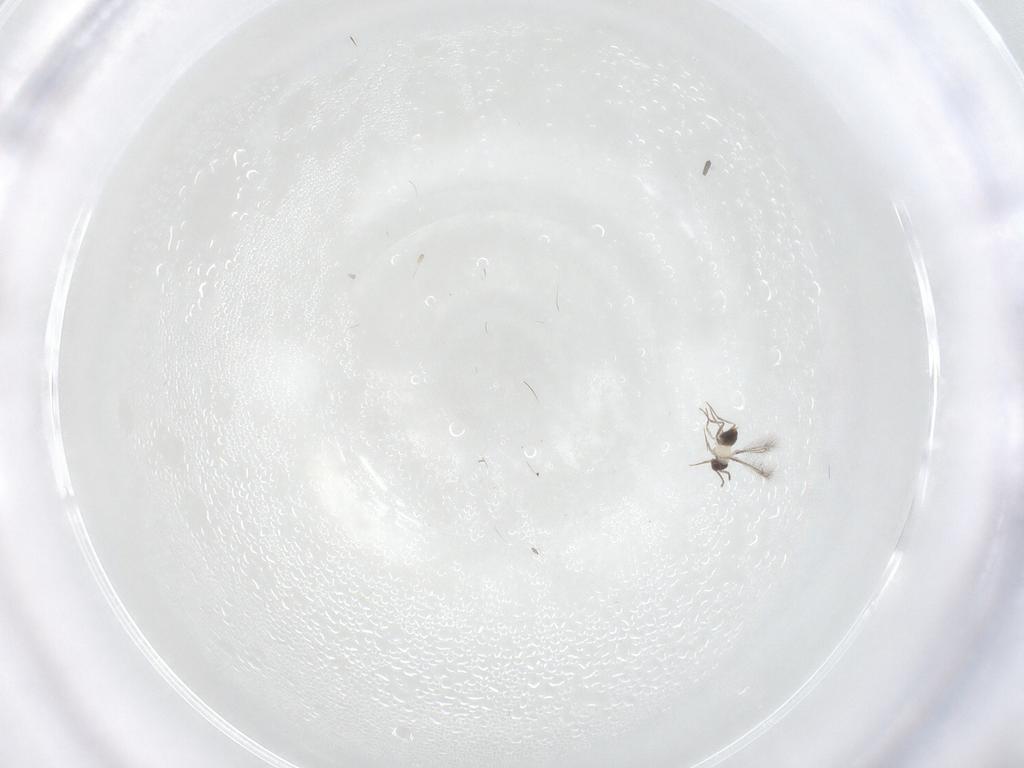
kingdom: Animalia
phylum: Arthropoda
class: Insecta
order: Hymenoptera
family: Mymaridae
